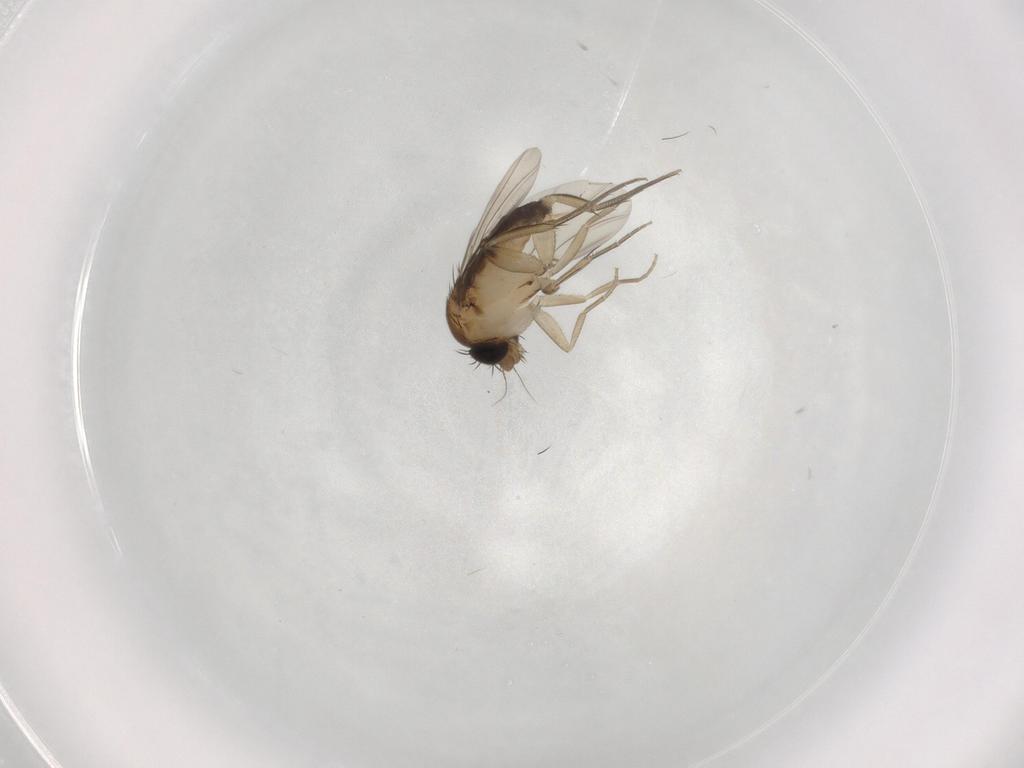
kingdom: Animalia
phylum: Arthropoda
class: Insecta
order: Diptera
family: Phoridae
